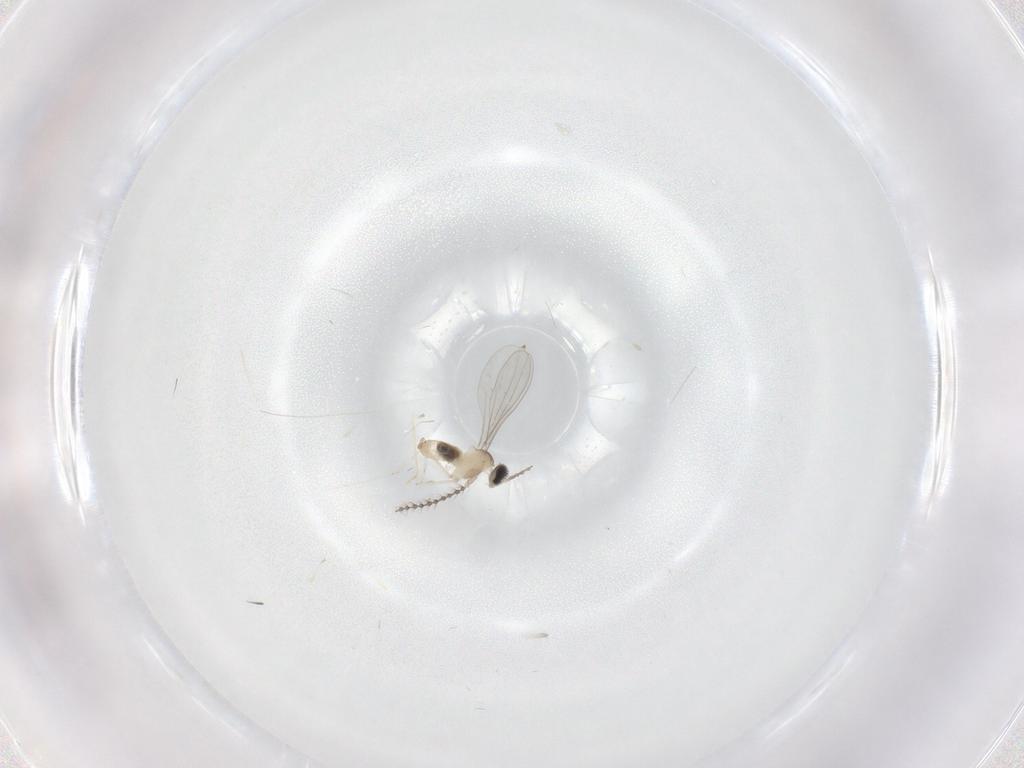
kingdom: Animalia
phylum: Arthropoda
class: Insecta
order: Diptera
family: Cecidomyiidae
